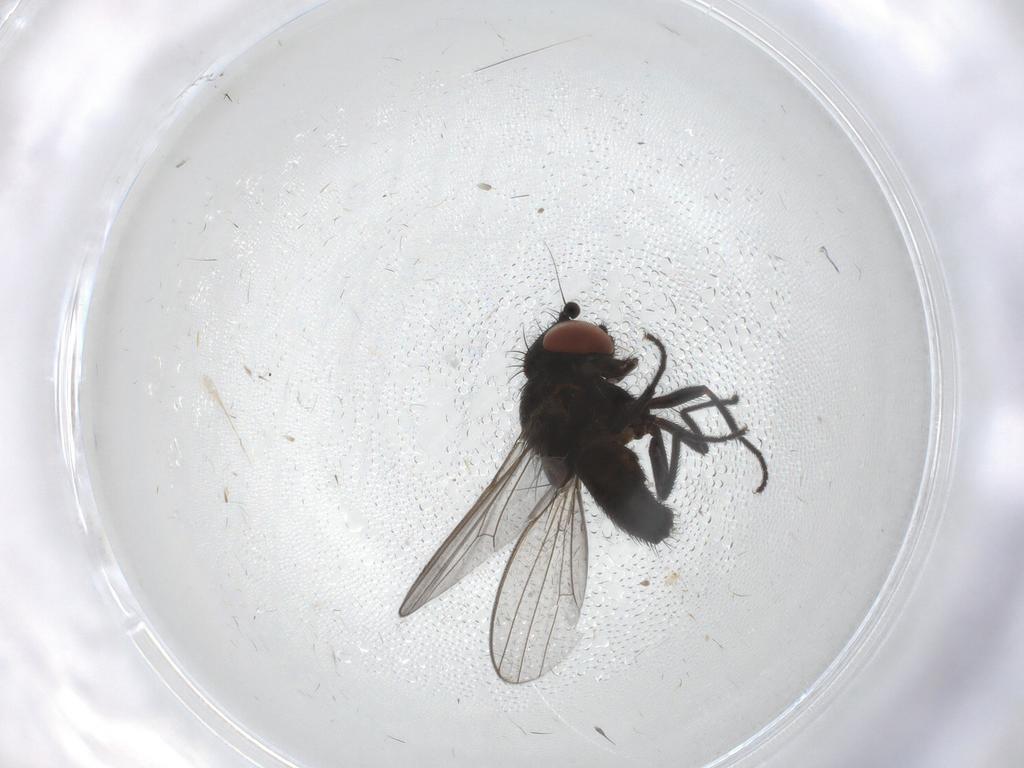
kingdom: Animalia
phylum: Arthropoda
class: Insecta
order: Diptera
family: Milichiidae
